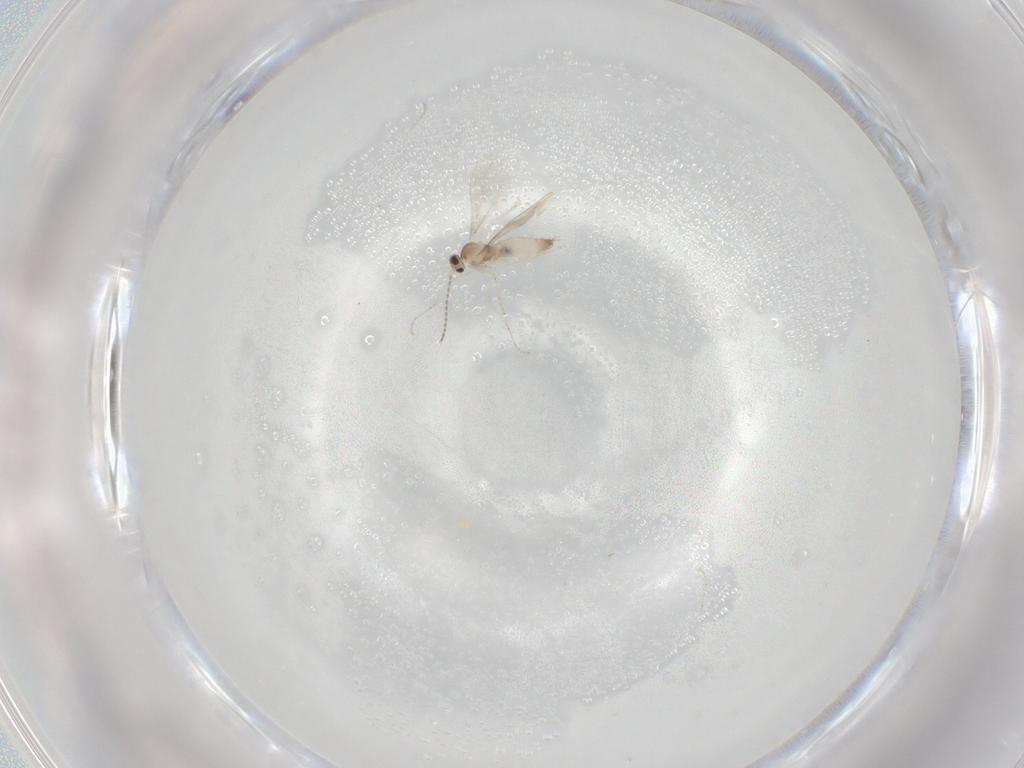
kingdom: Animalia
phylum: Arthropoda
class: Insecta
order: Diptera
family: Cecidomyiidae
